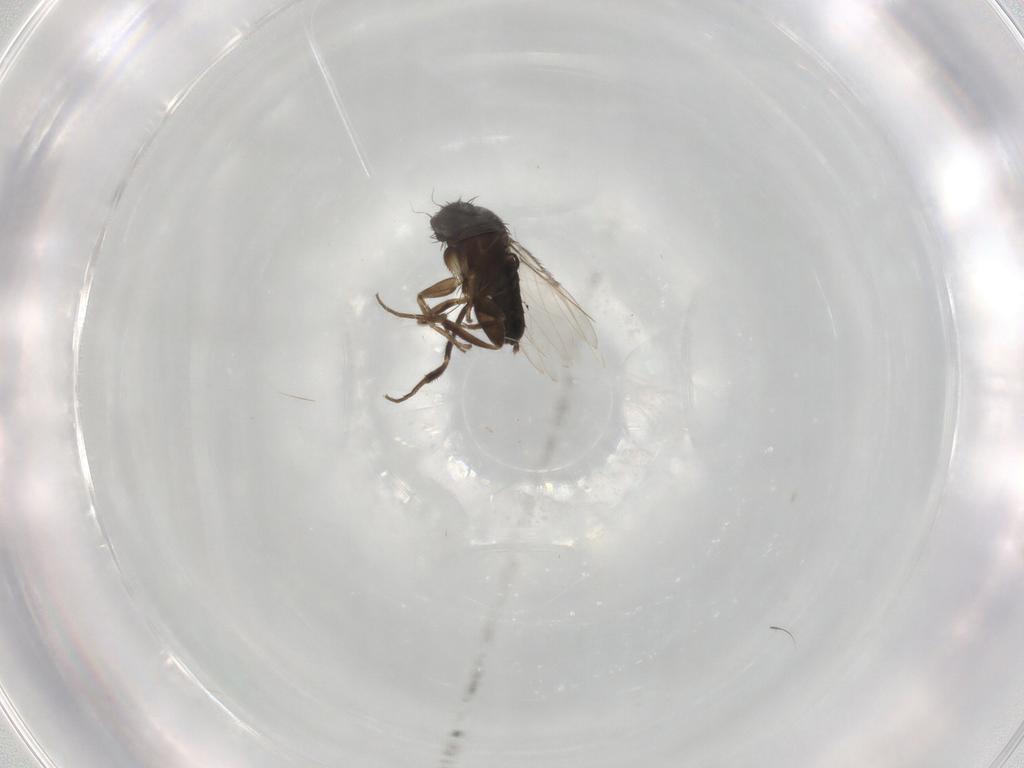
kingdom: Animalia
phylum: Arthropoda
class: Insecta
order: Diptera
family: Phoridae
